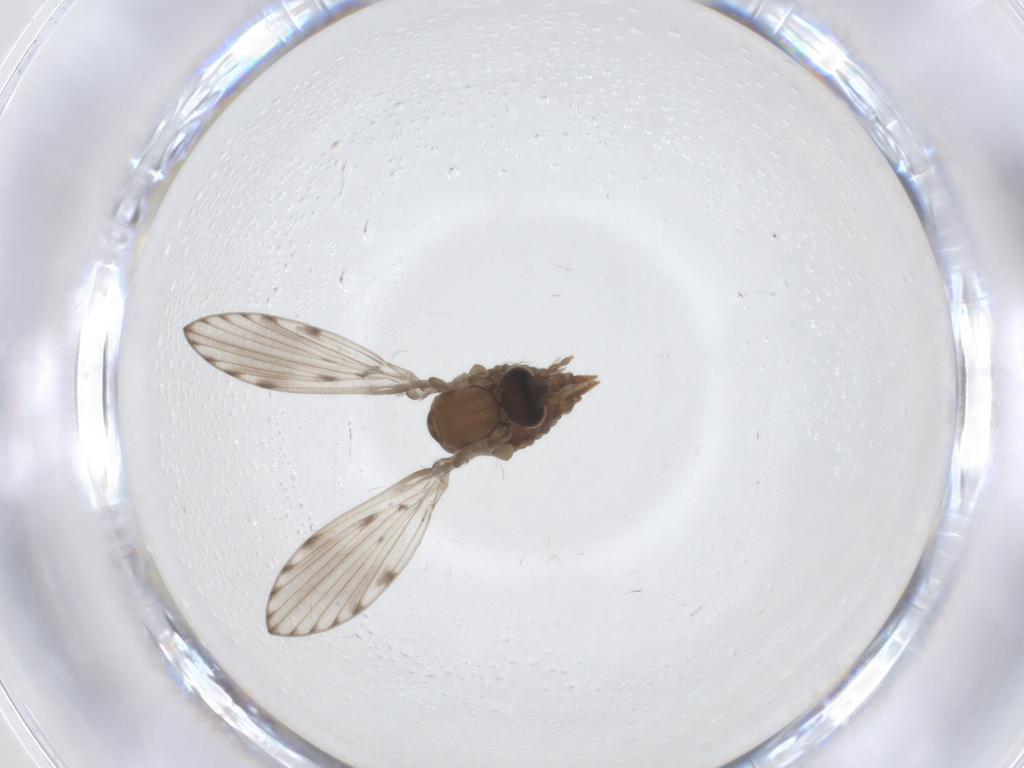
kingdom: Animalia
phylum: Arthropoda
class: Insecta
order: Diptera
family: Psychodidae
